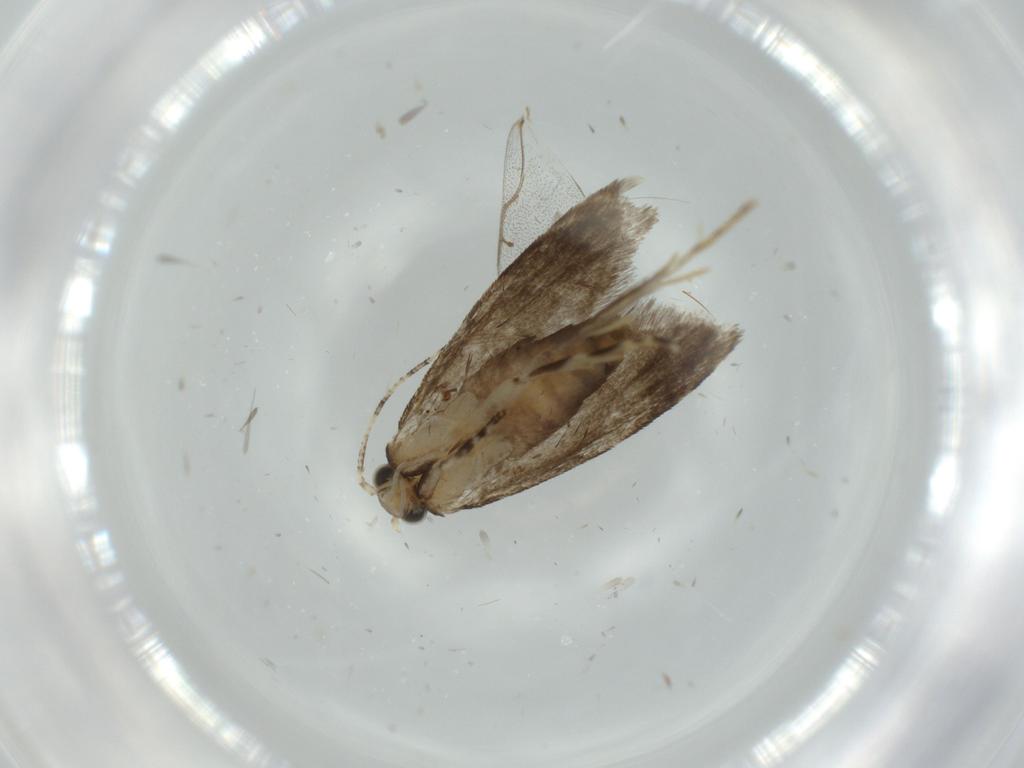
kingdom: Animalia
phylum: Arthropoda
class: Insecta
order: Lepidoptera
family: Tineidae
